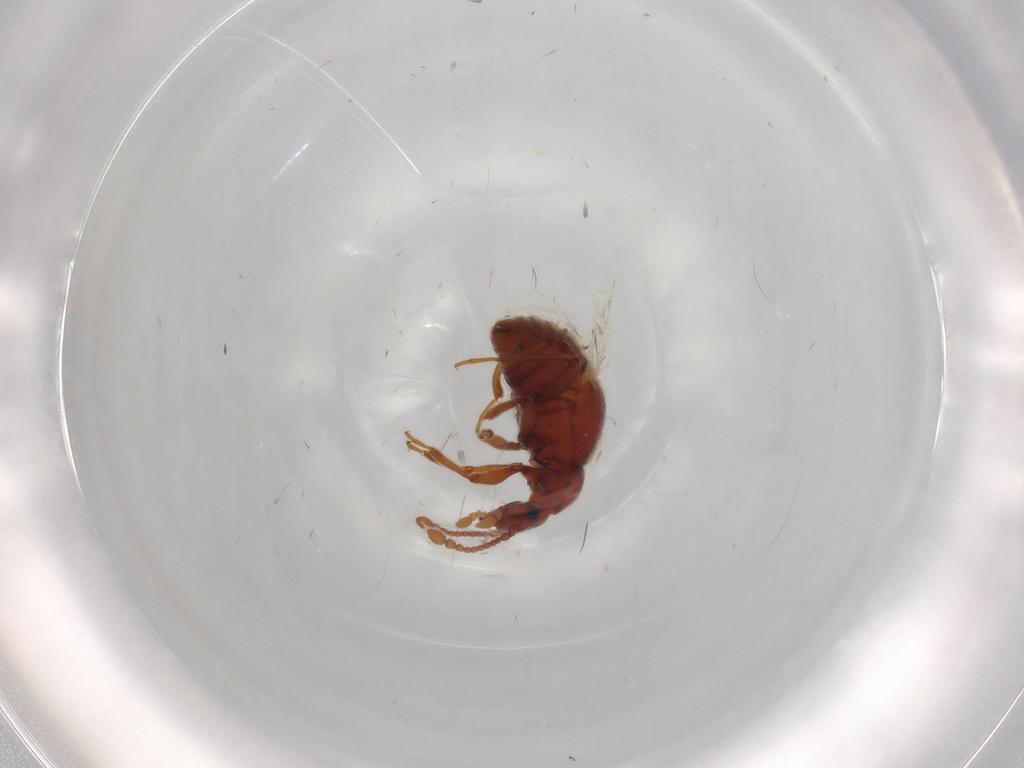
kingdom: Animalia
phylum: Arthropoda
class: Insecta
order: Coleoptera
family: Staphylinidae
